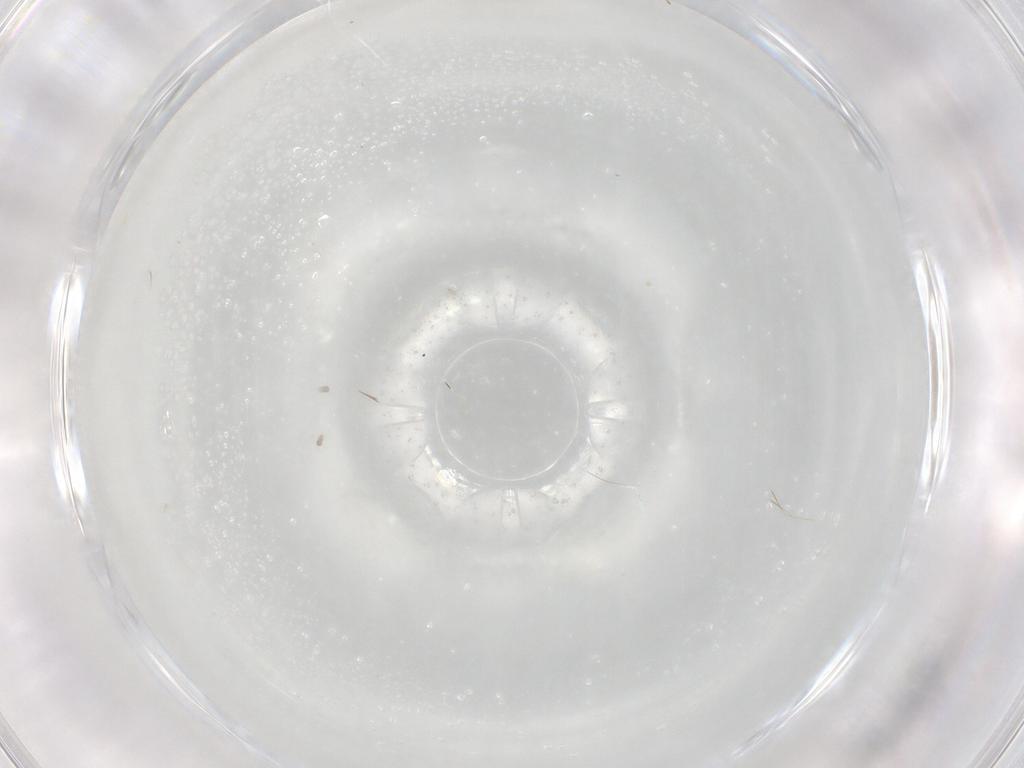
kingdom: Animalia
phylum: Arthropoda
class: Insecta
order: Diptera
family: Cecidomyiidae
